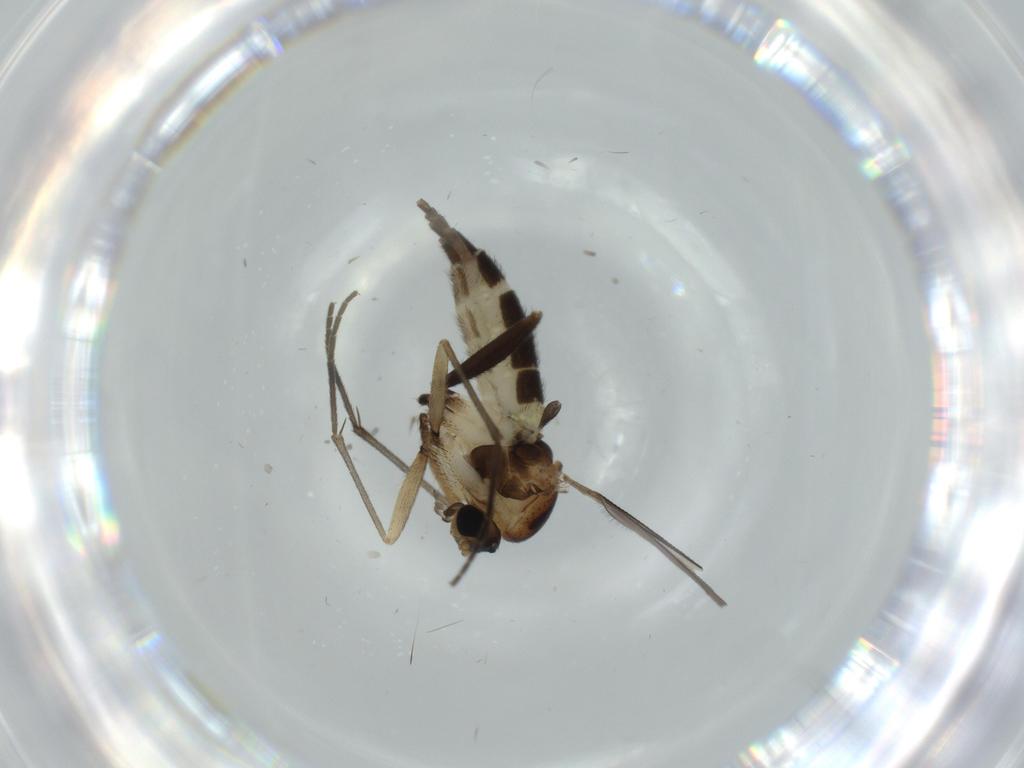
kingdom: Animalia
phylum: Arthropoda
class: Insecta
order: Diptera
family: Sciaridae
